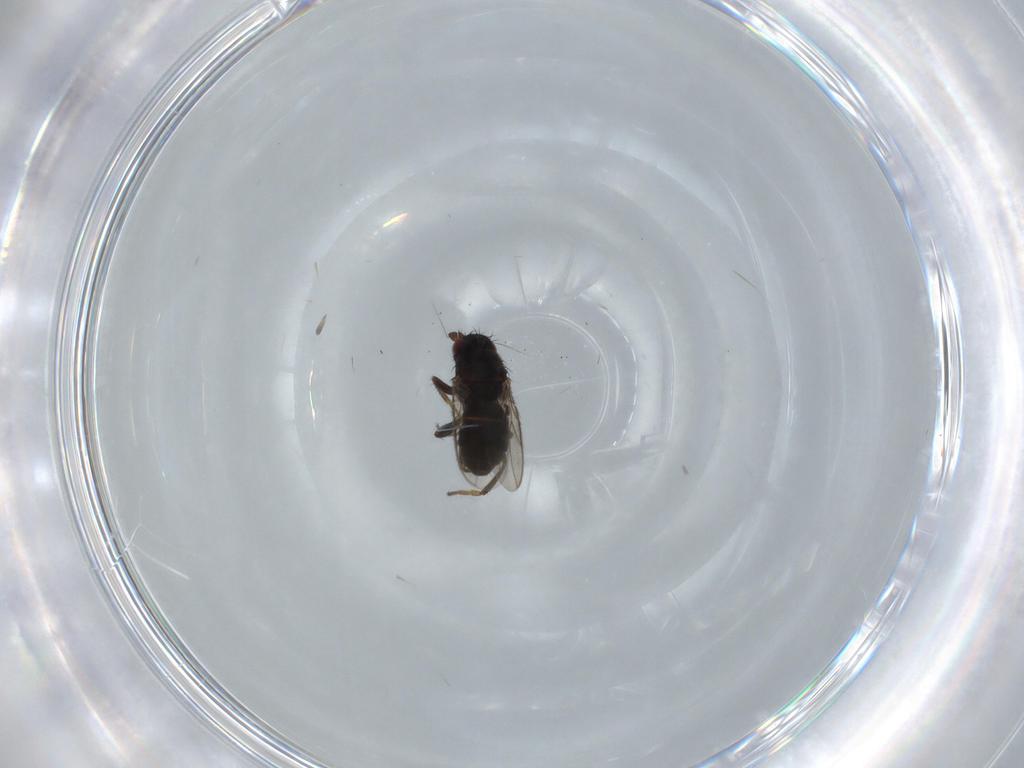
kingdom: Animalia
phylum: Arthropoda
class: Insecta
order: Diptera
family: Sphaeroceridae
